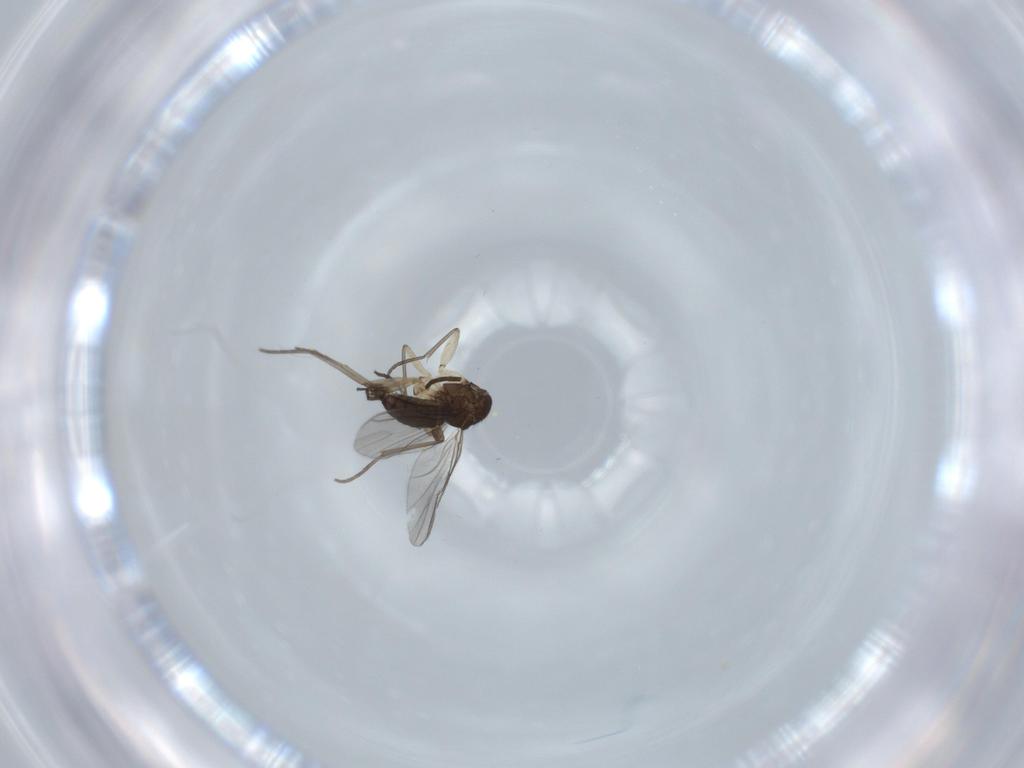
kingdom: Animalia
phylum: Arthropoda
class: Insecta
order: Diptera
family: Sciaridae
